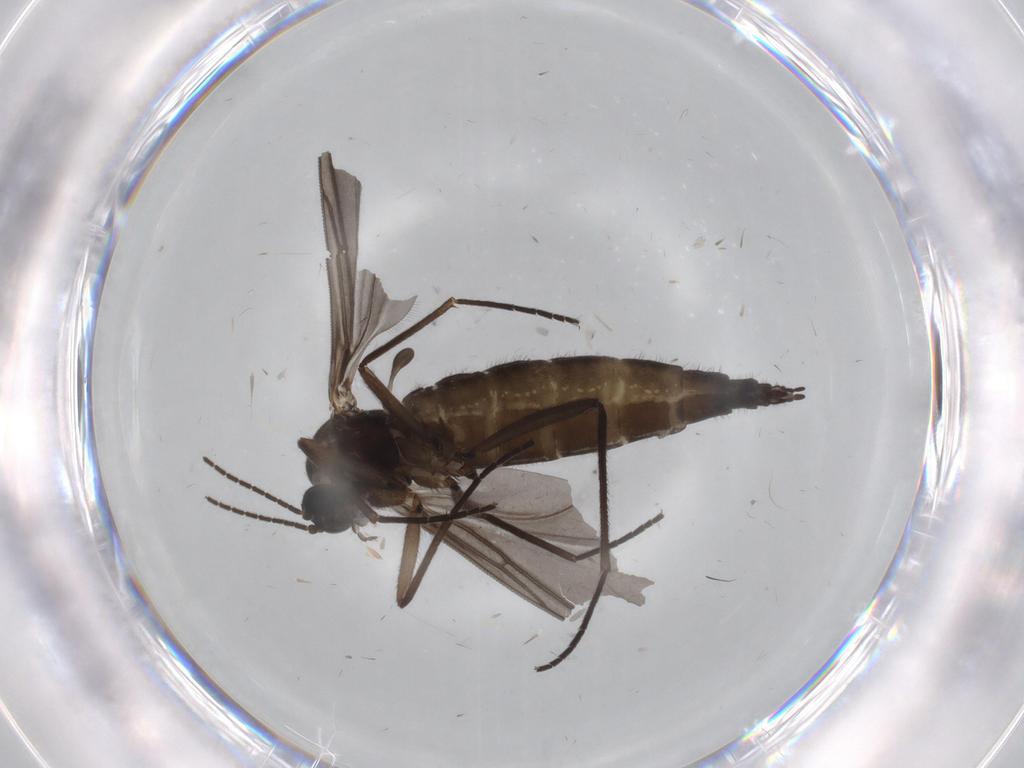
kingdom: Animalia
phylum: Arthropoda
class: Insecta
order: Diptera
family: Sciaridae
